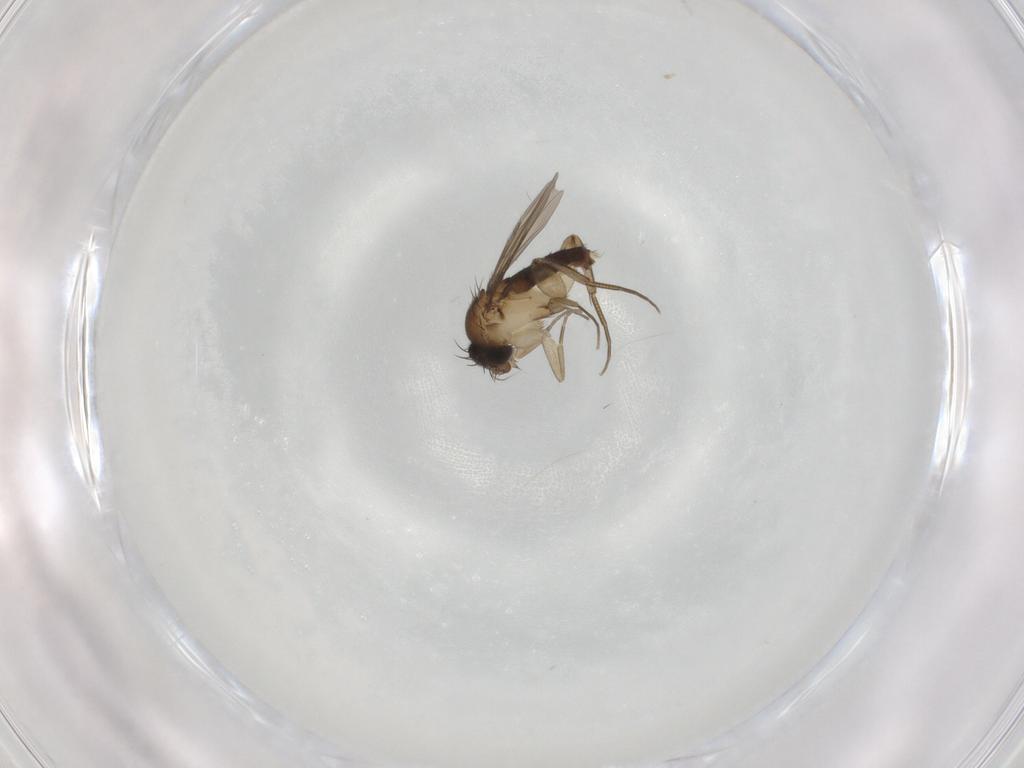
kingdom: Animalia
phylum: Arthropoda
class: Insecta
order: Diptera
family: Phoridae
